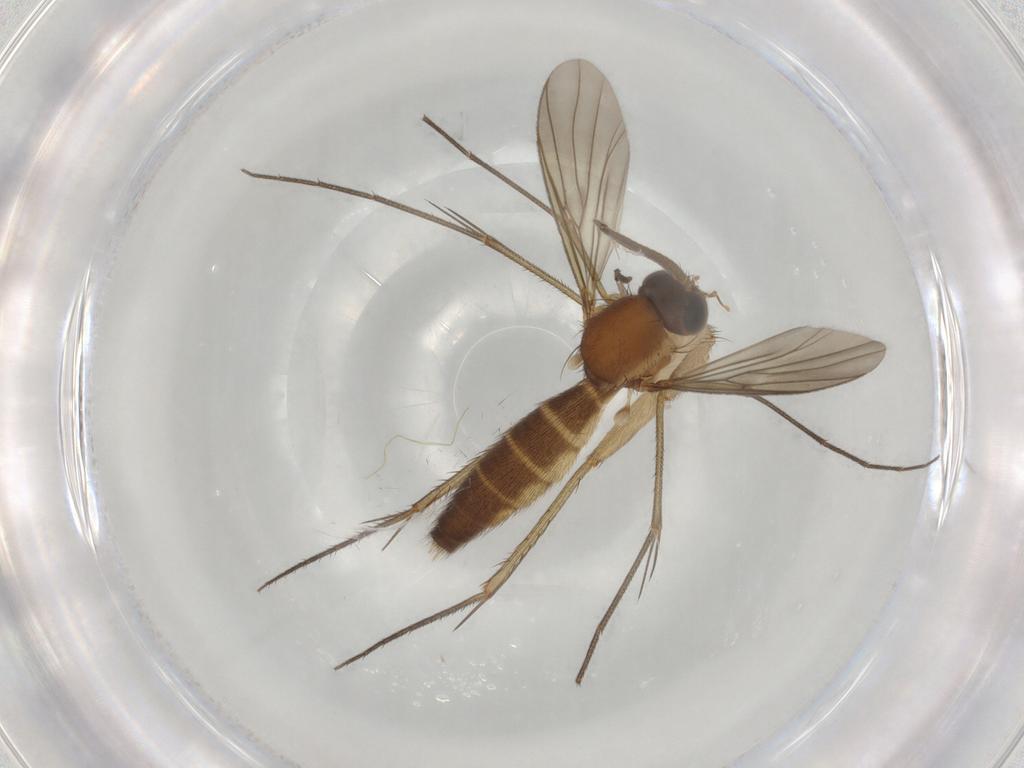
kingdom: Animalia
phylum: Arthropoda
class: Insecta
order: Diptera
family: Mycetophilidae
